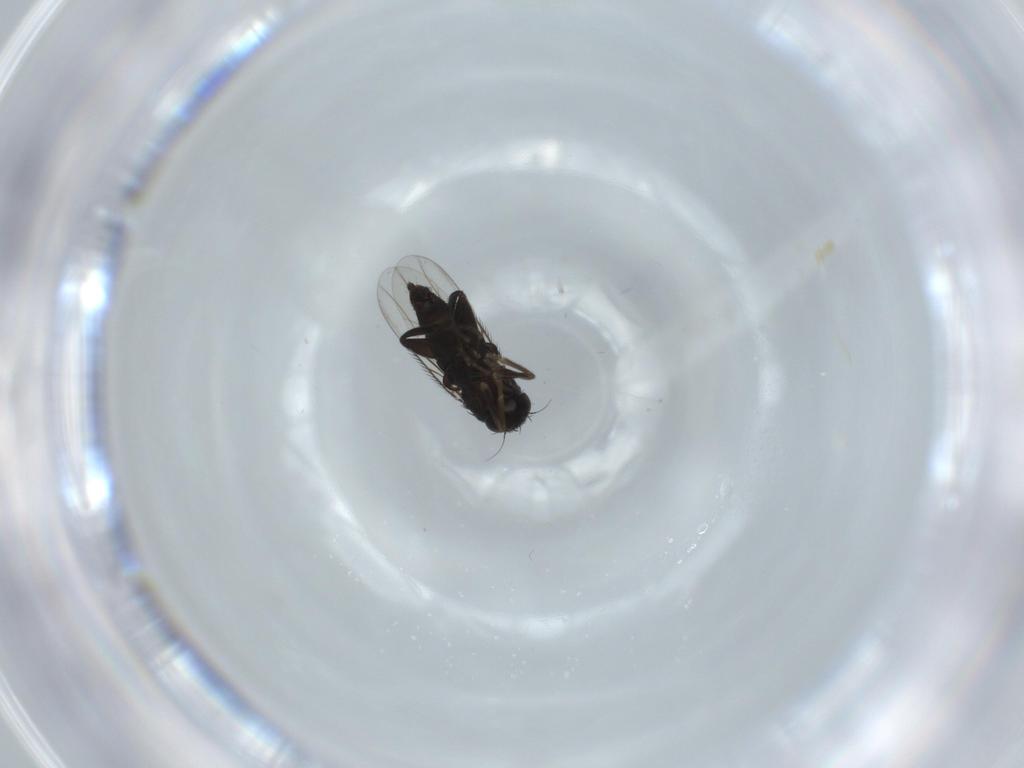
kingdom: Animalia
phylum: Arthropoda
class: Insecta
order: Diptera
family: Phoridae
